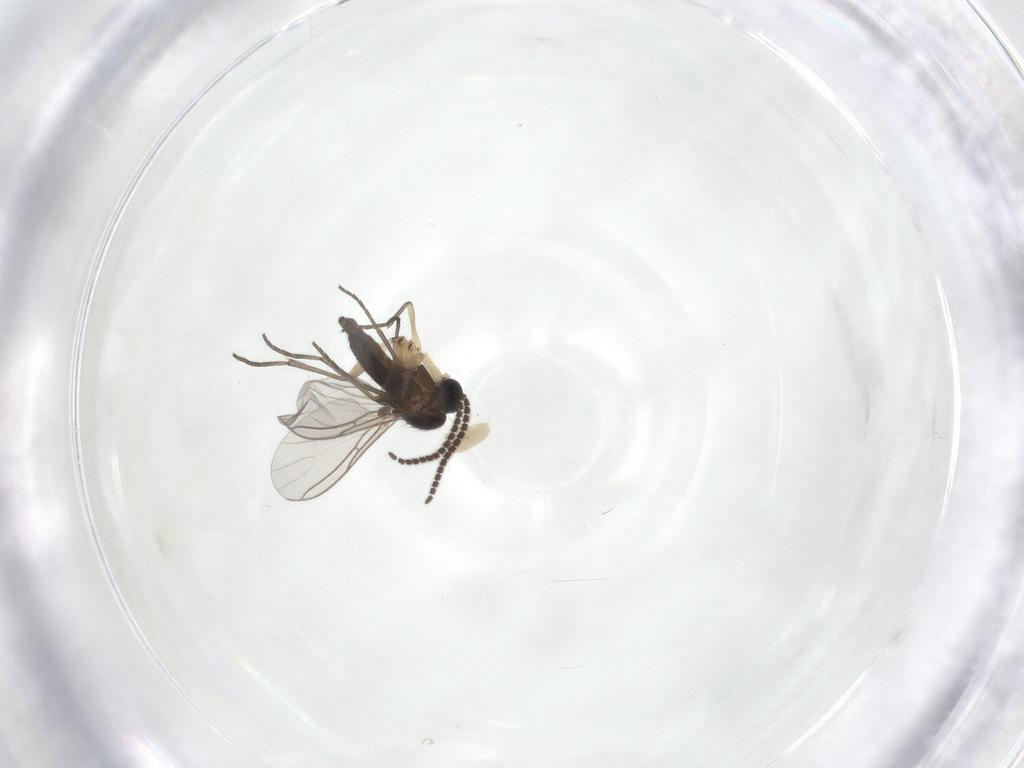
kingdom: Animalia
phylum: Arthropoda
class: Insecta
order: Diptera
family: Sciaridae
